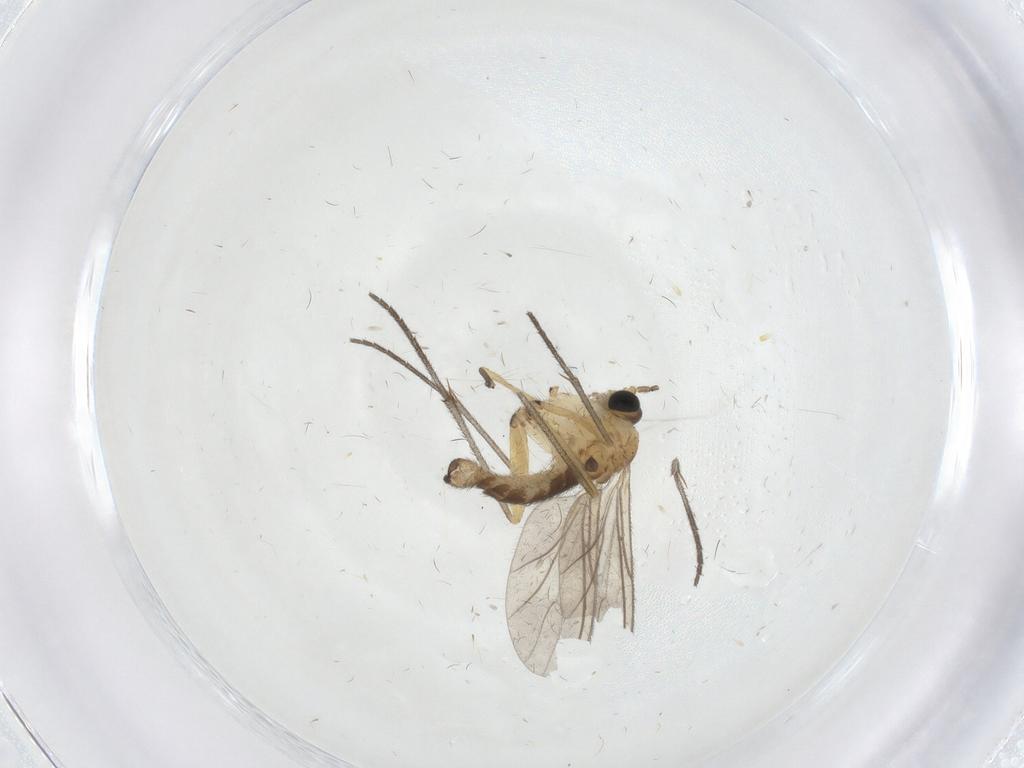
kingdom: Animalia
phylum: Arthropoda
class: Insecta
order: Diptera
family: Sciaridae
